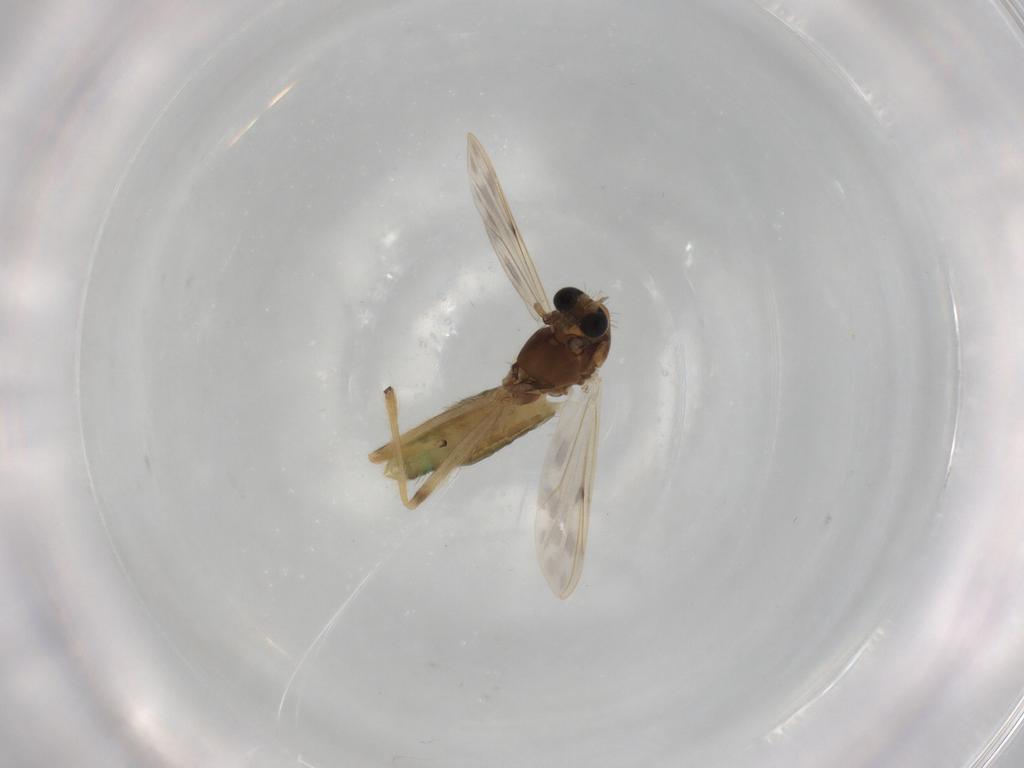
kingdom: Animalia
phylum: Arthropoda
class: Insecta
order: Diptera
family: Chironomidae
